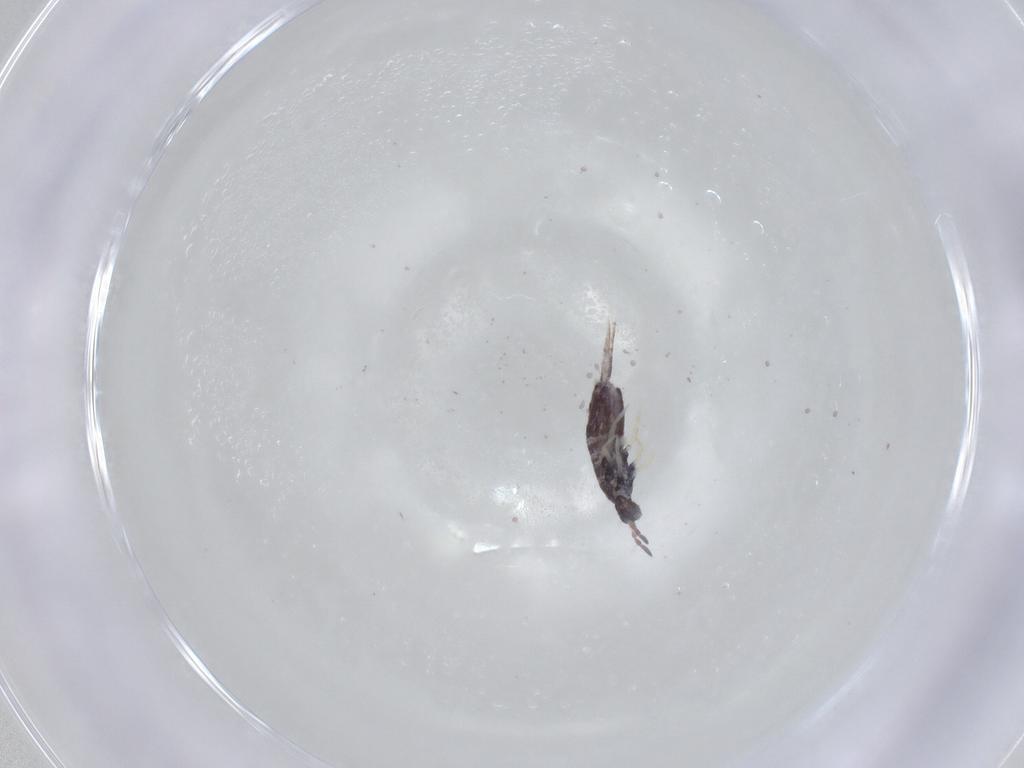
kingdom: Animalia
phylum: Arthropoda
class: Collembola
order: Entomobryomorpha
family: Entomobryidae
